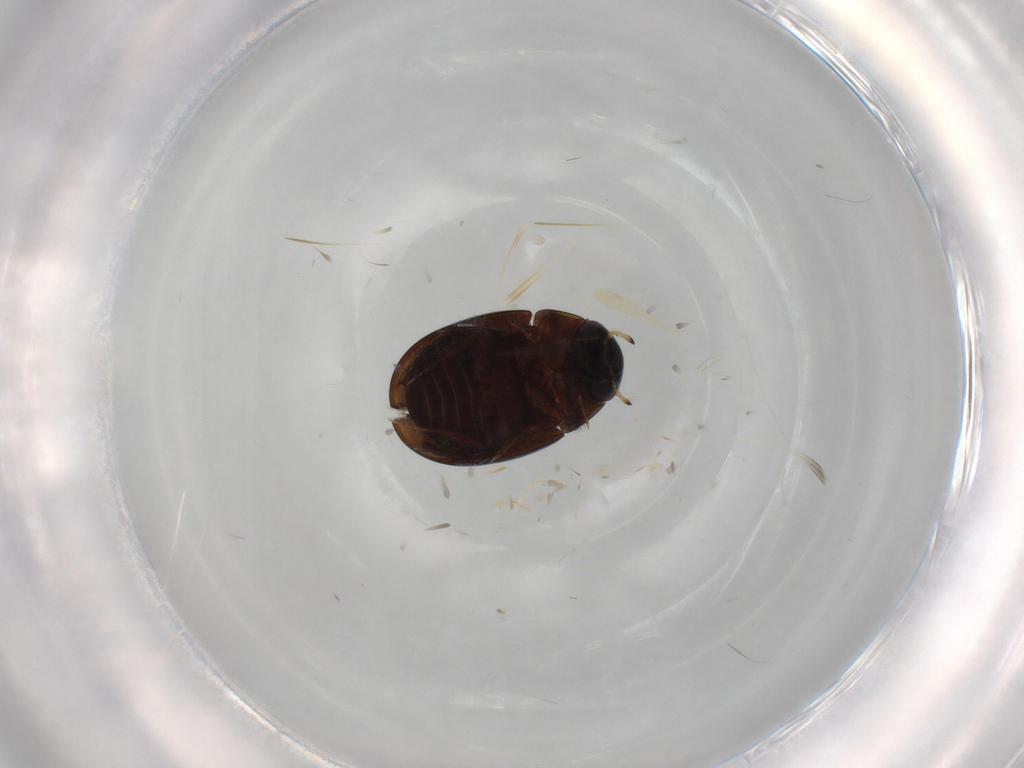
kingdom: Animalia
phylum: Arthropoda
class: Insecta
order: Coleoptera
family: Hydrophilidae
